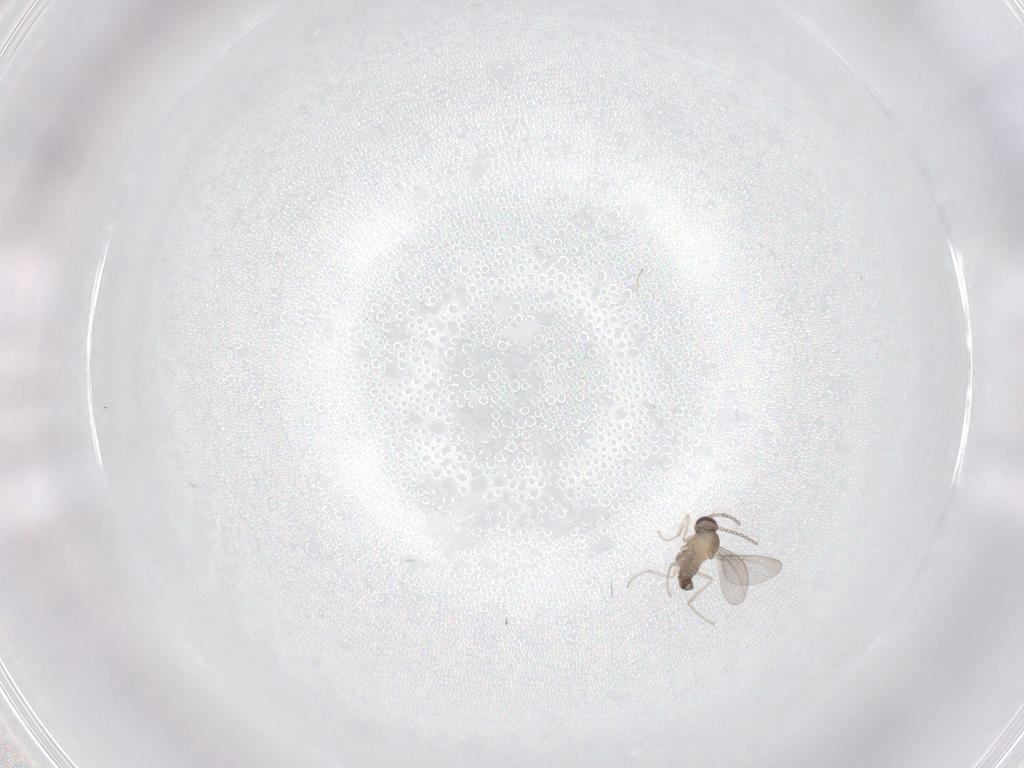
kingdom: Animalia
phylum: Arthropoda
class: Insecta
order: Diptera
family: Cecidomyiidae
